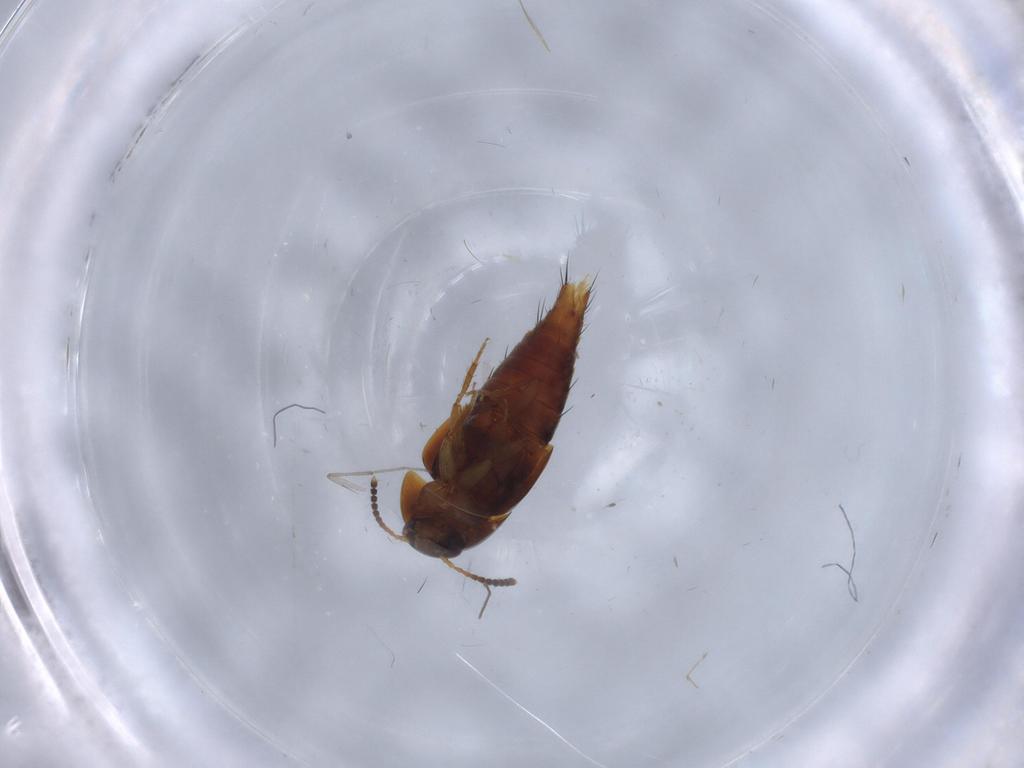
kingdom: Animalia
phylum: Arthropoda
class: Insecta
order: Coleoptera
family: Staphylinidae
